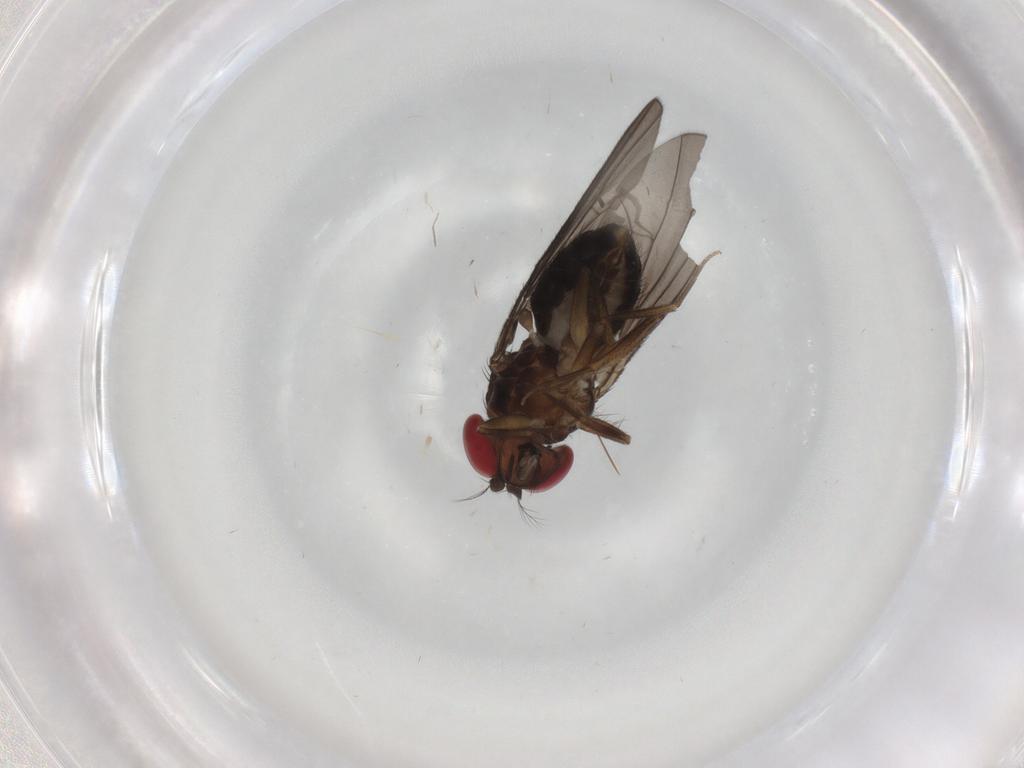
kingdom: Animalia
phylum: Arthropoda
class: Insecta
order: Diptera
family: Drosophilidae
